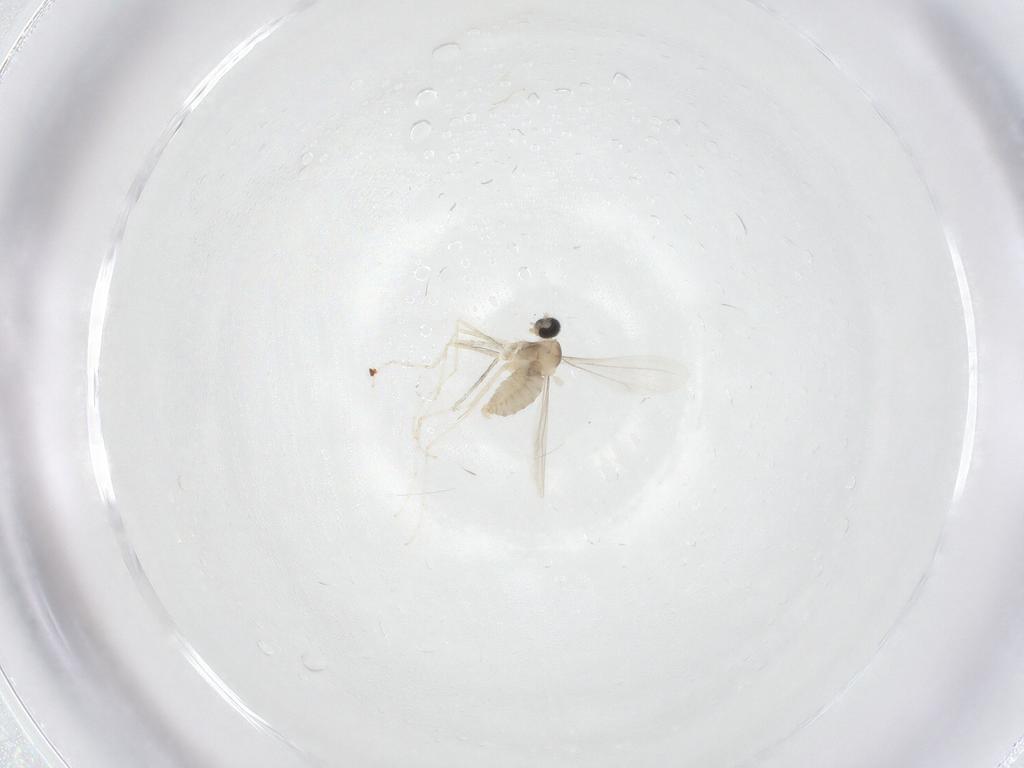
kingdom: Animalia
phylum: Arthropoda
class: Insecta
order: Diptera
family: Cecidomyiidae
